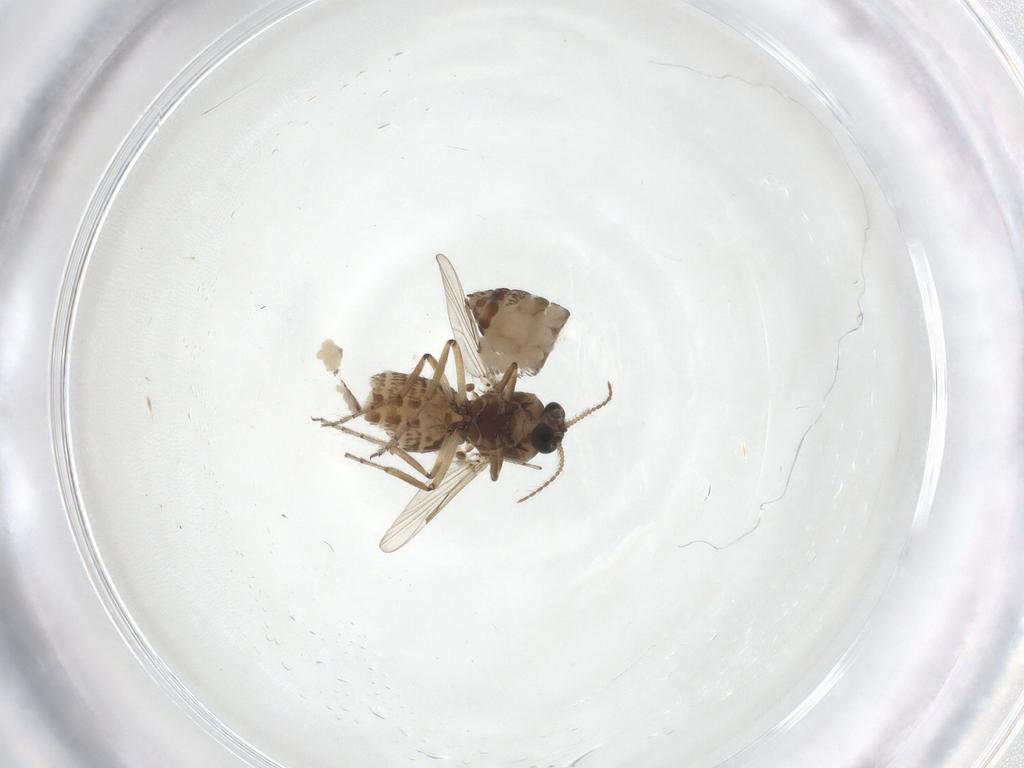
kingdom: Animalia
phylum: Arthropoda
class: Insecta
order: Diptera
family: Ceratopogonidae
